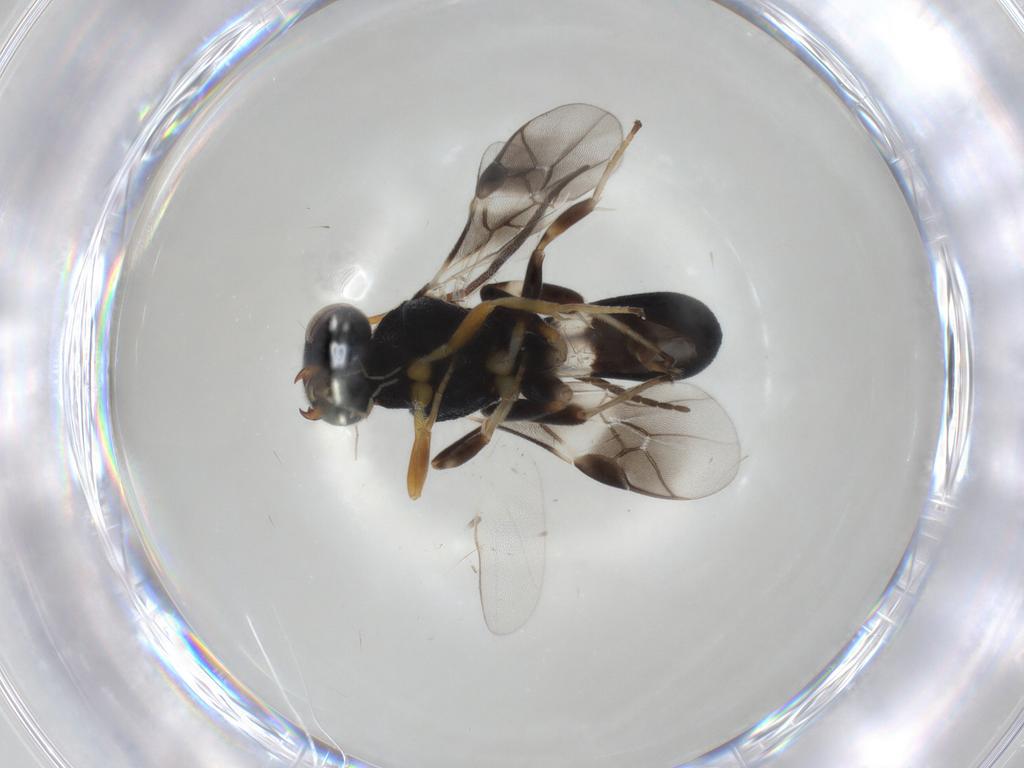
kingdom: Animalia
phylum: Arthropoda
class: Insecta
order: Hymenoptera
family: Braconidae
